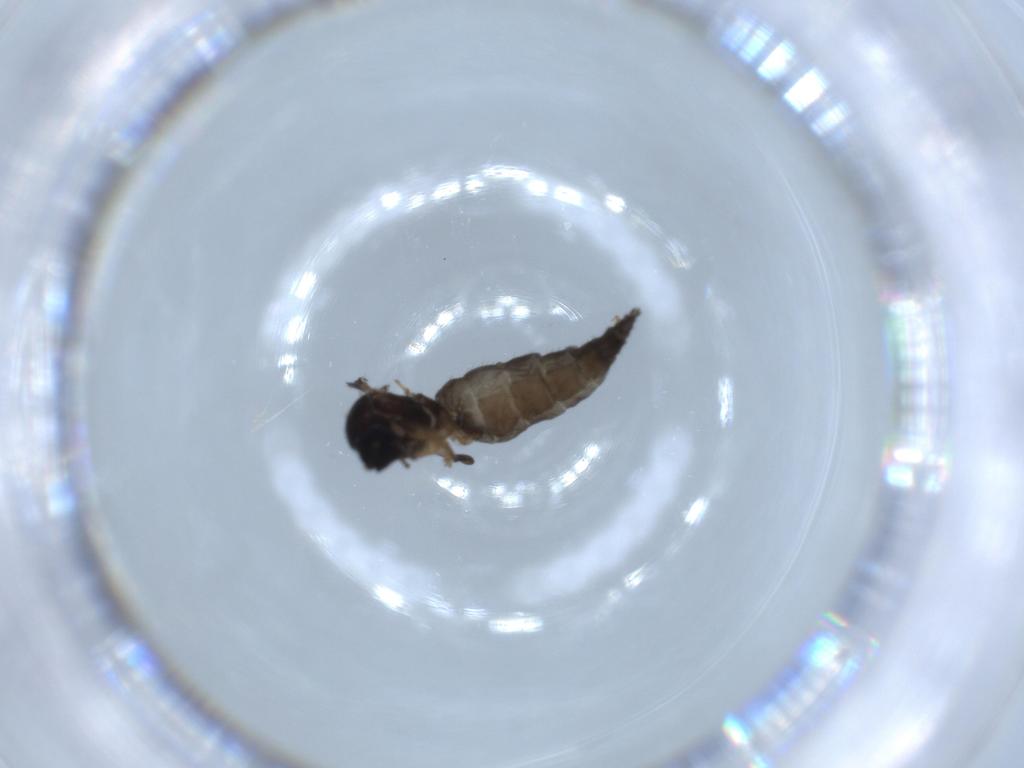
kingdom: Animalia
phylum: Arthropoda
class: Insecta
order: Diptera
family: Sciaridae
